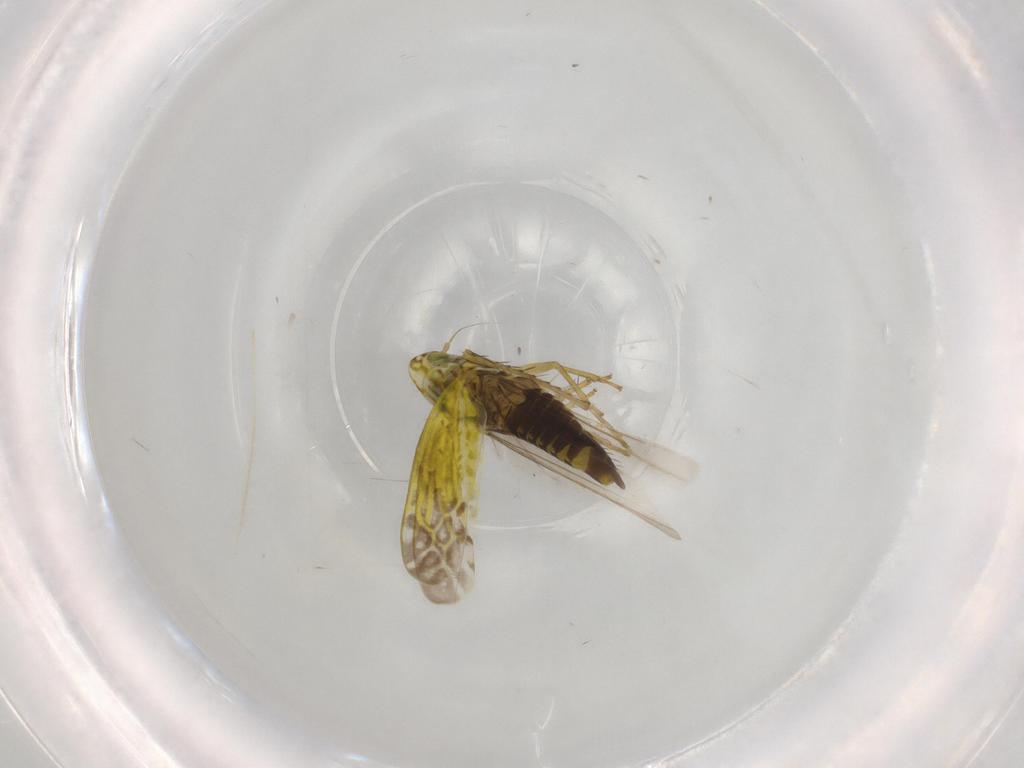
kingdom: Animalia
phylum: Arthropoda
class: Insecta
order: Hemiptera
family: Cicadellidae
